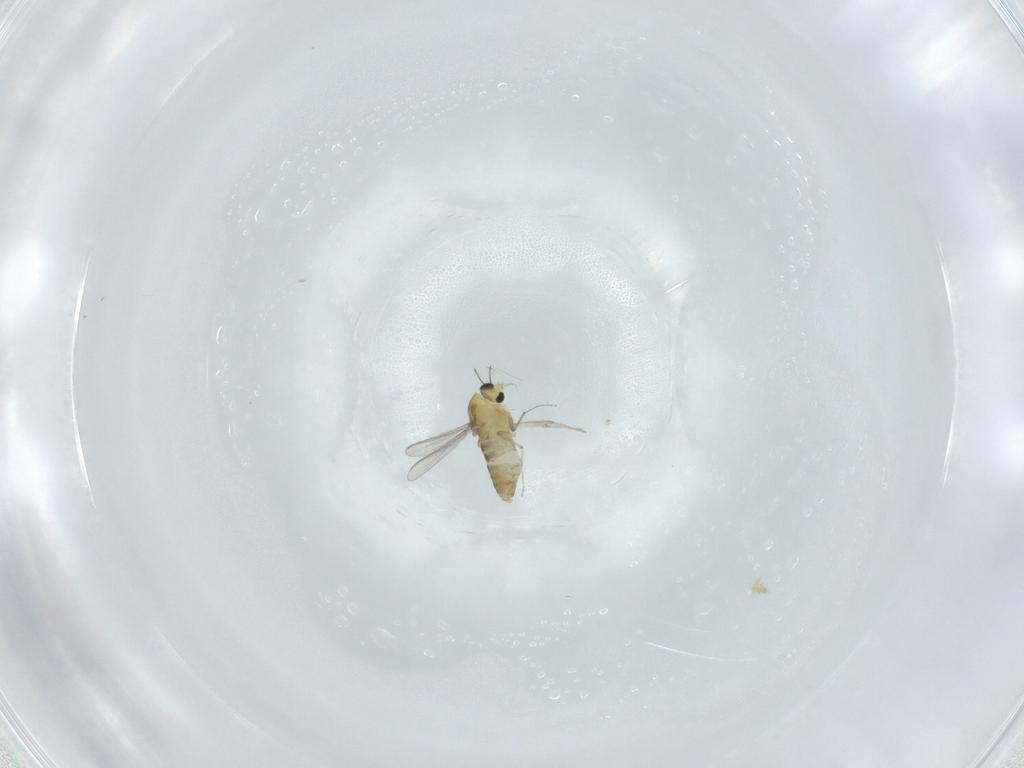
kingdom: Animalia
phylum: Arthropoda
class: Insecta
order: Diptera
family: Chironomidae
